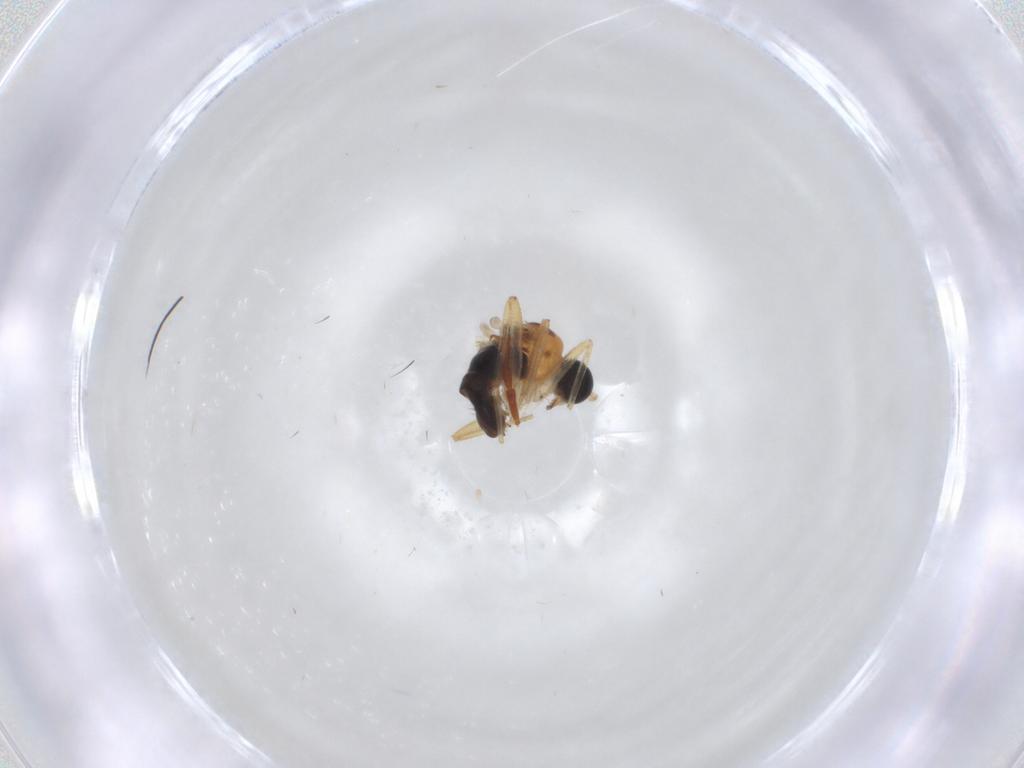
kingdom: Animalia
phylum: Arthropoda
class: Insecta
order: Diptera
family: Hybotidae
